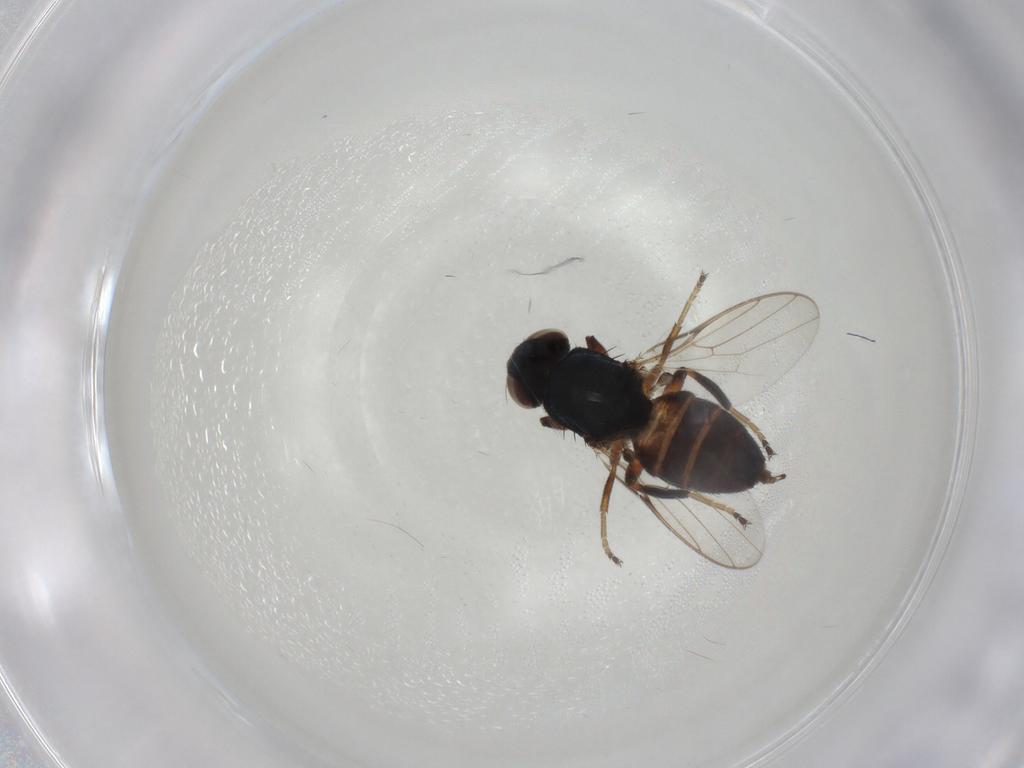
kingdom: Animalia
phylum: Arthropoda
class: Insecta
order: Diptera
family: Chloropidae
